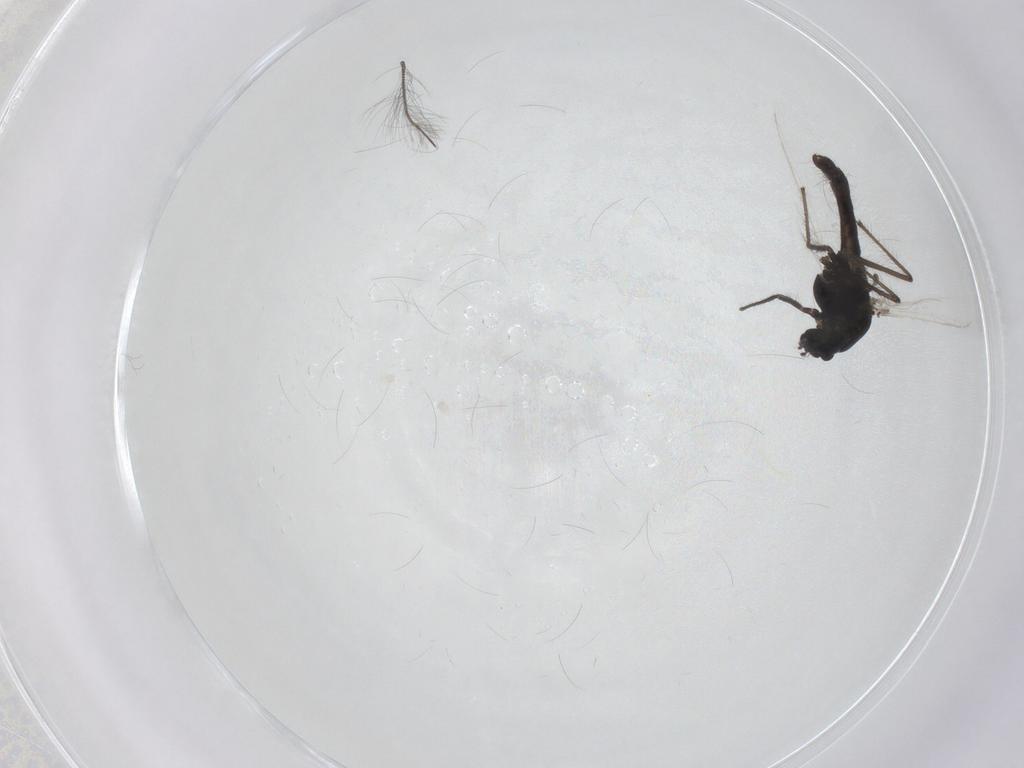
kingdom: Animalia
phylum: Arthropoda
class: Insecta
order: Diptera
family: Chironomidae
